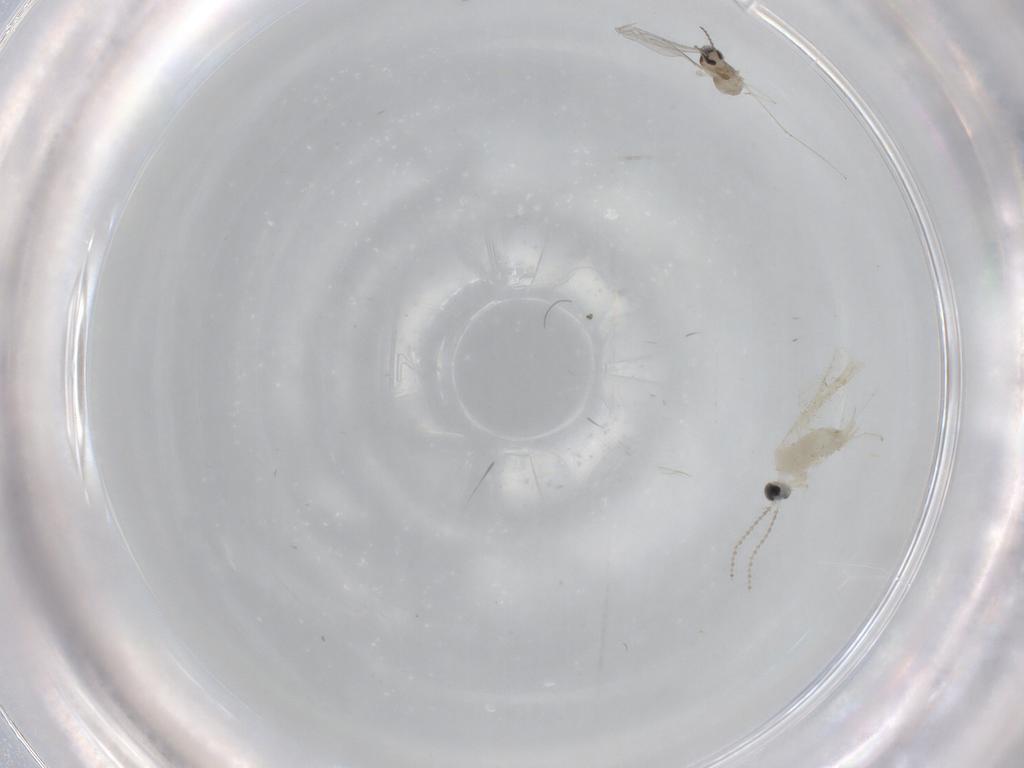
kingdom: Animalia
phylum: Arthropoda
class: Insecta
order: Diptera
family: Cecidomyiidae
